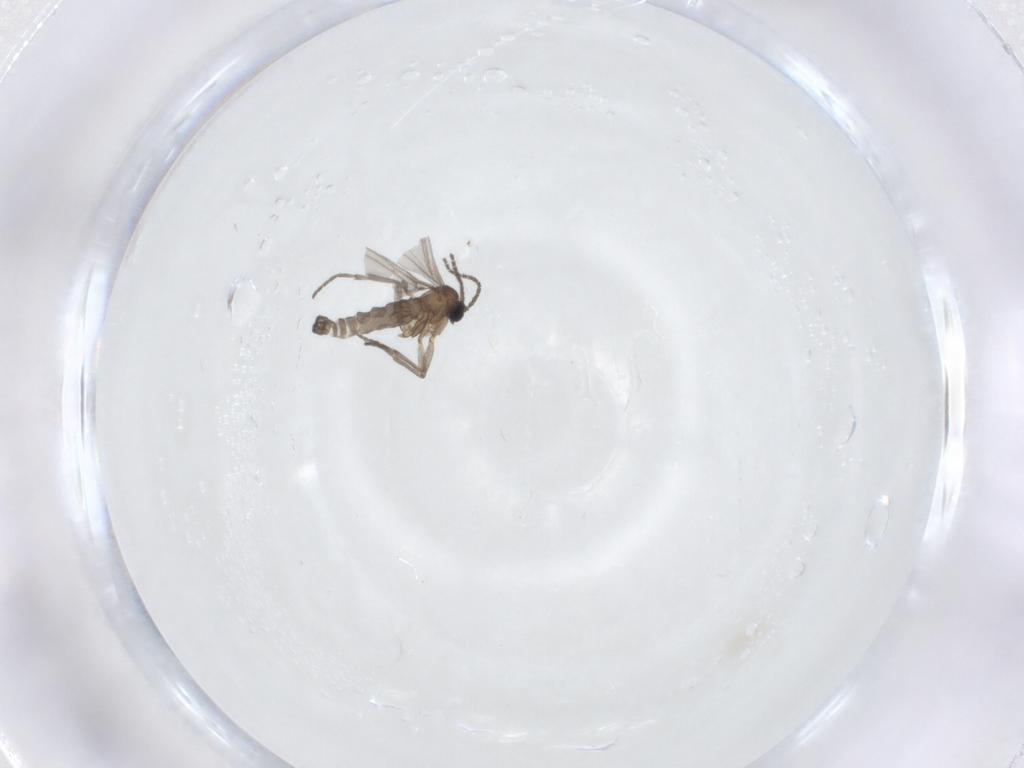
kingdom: Animalia
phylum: Arthropoda
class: Insecta
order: Diptera
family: Sciaridae
